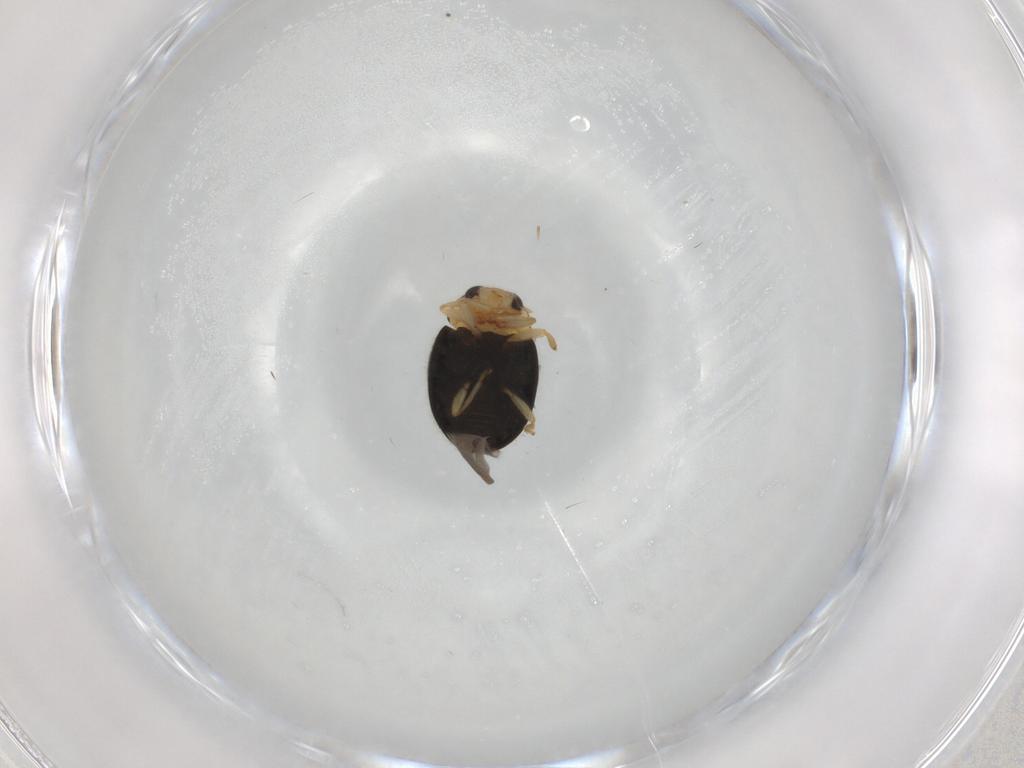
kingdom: Animalia
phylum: Arthropoda
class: Insecta
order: Coleoptera
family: Coccinellidae
